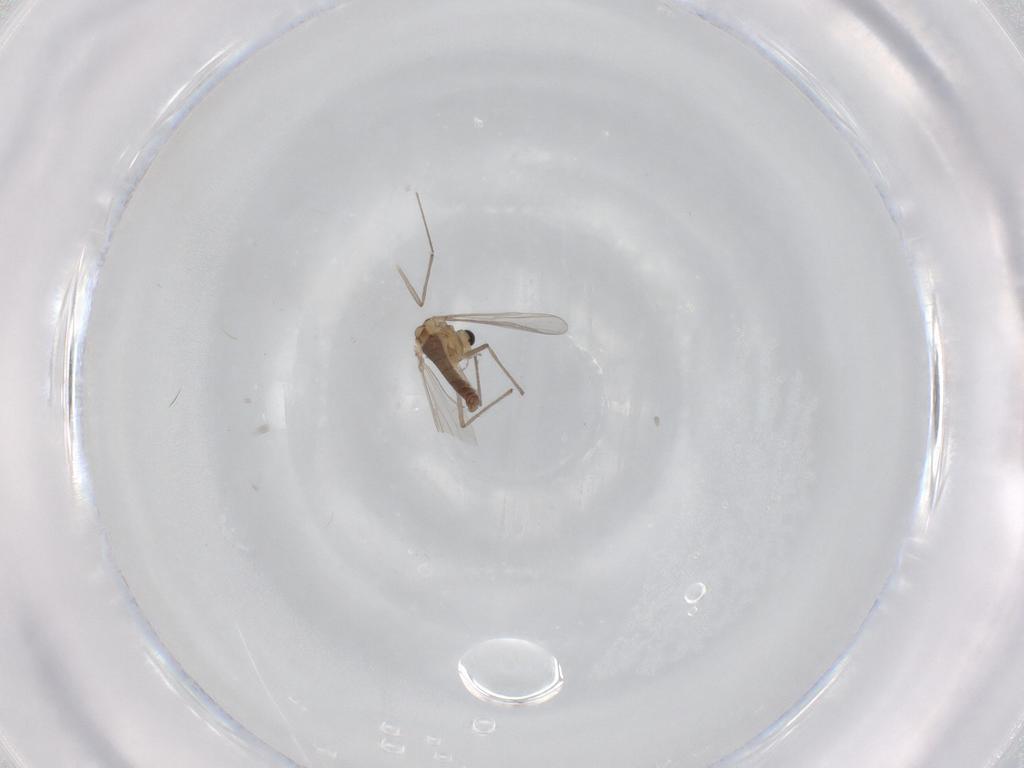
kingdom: Animalia
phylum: Arthropoda
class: Insecta
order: Diptera
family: Chironomidae
